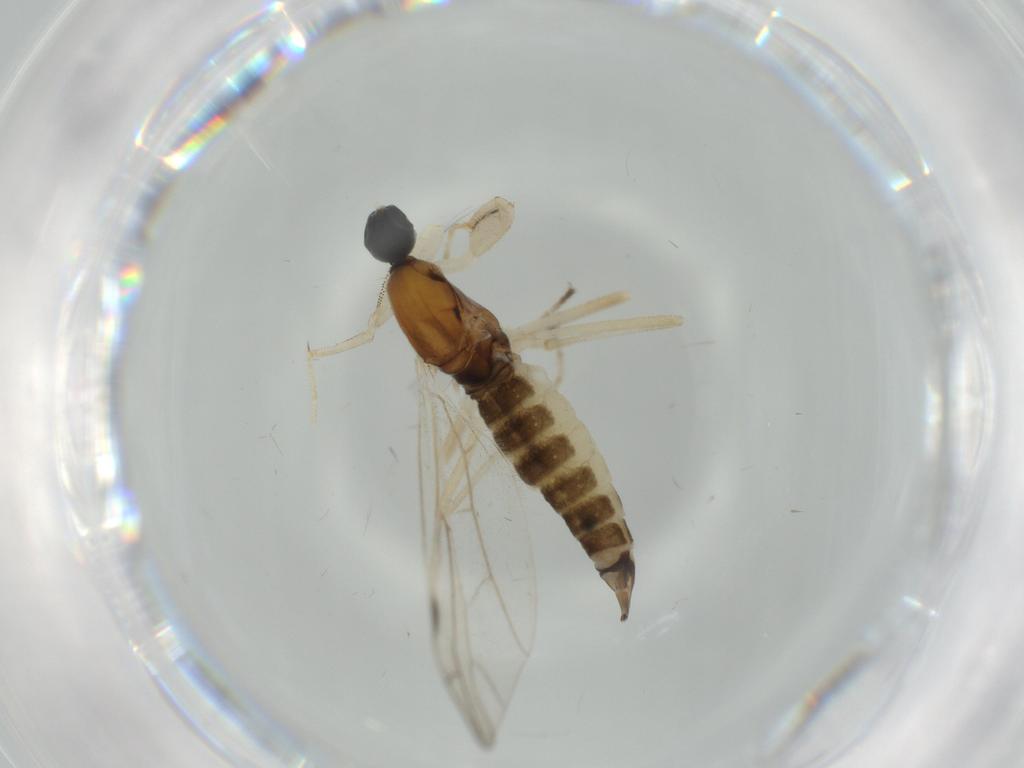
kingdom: Animalia
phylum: Arthropoda
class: Insecta
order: Diptera
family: Empididae
